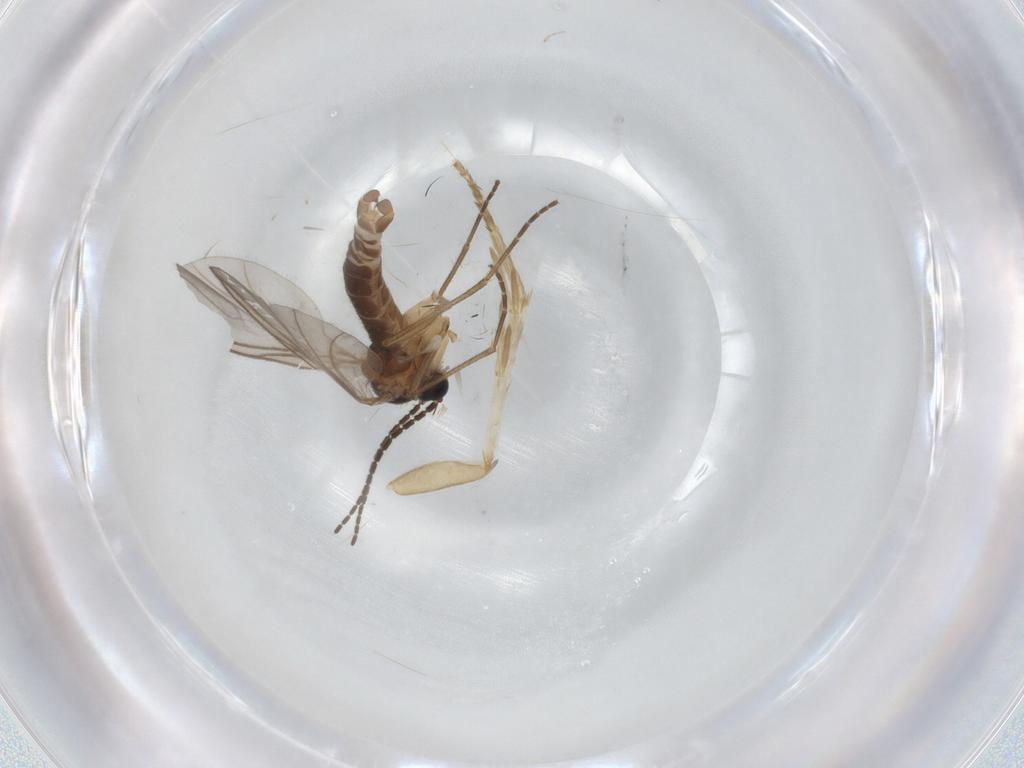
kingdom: Animalia
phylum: Arthropoda
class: Insecta
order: Diptera
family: Sciaridae
